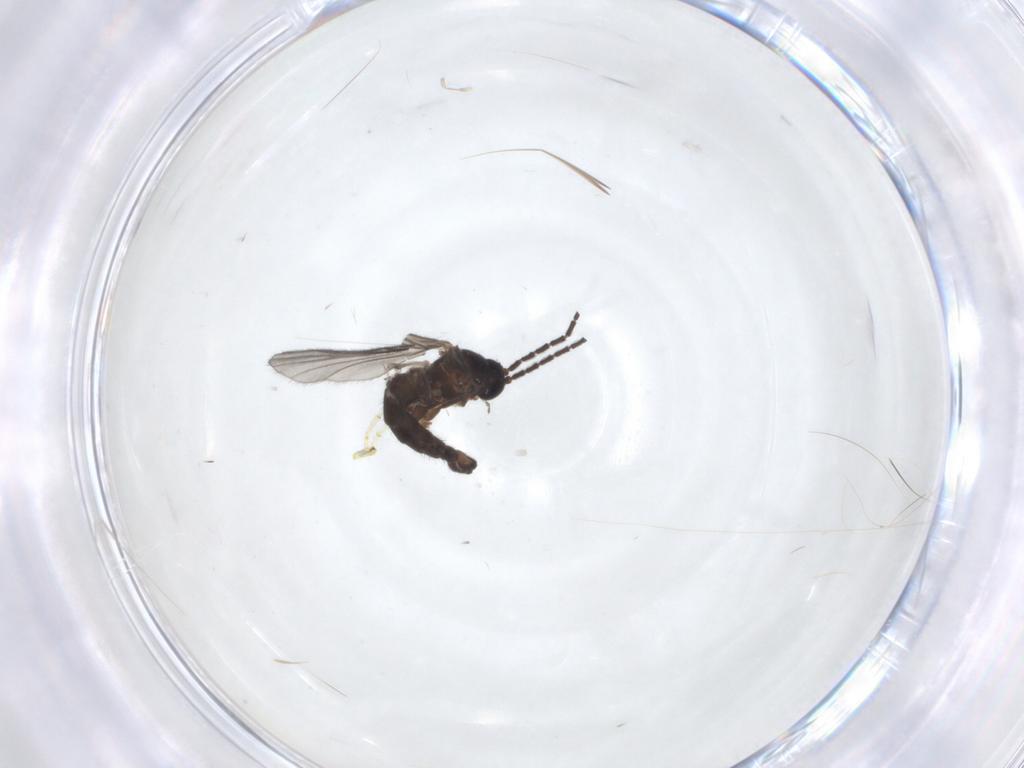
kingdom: Animalia
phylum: Arthropoda
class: Insecta
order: Diptera
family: Sciaridae
